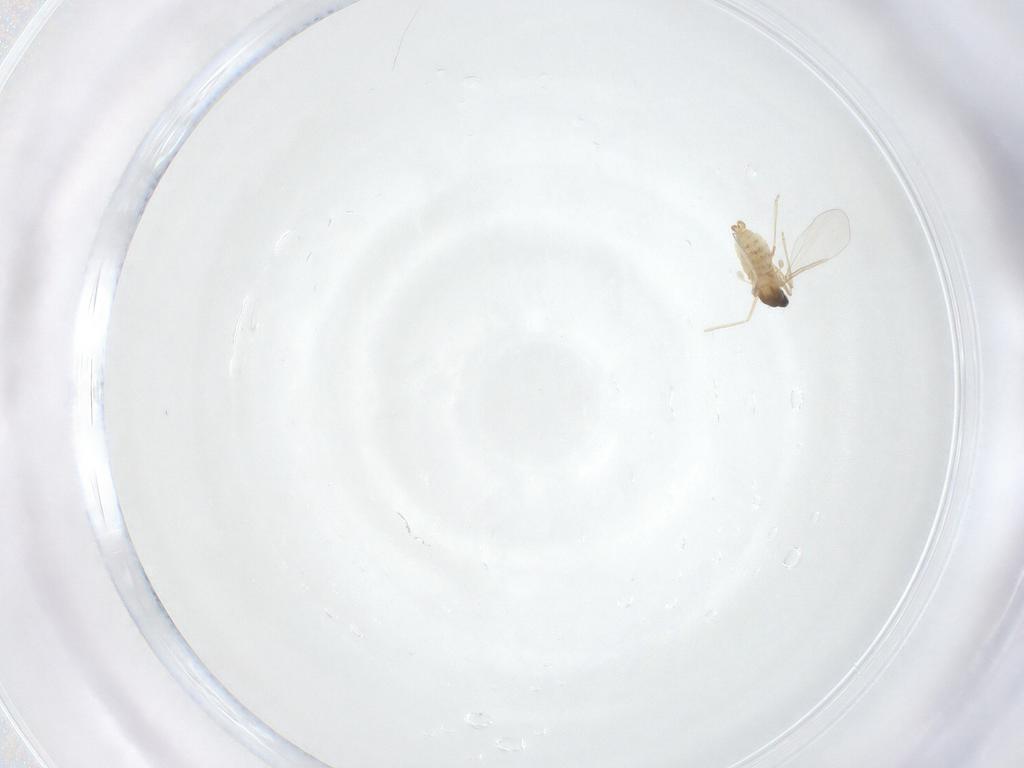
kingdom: Animalia
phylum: Arthropoda
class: Insecta
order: Diptera
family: Cecidomyiidae
